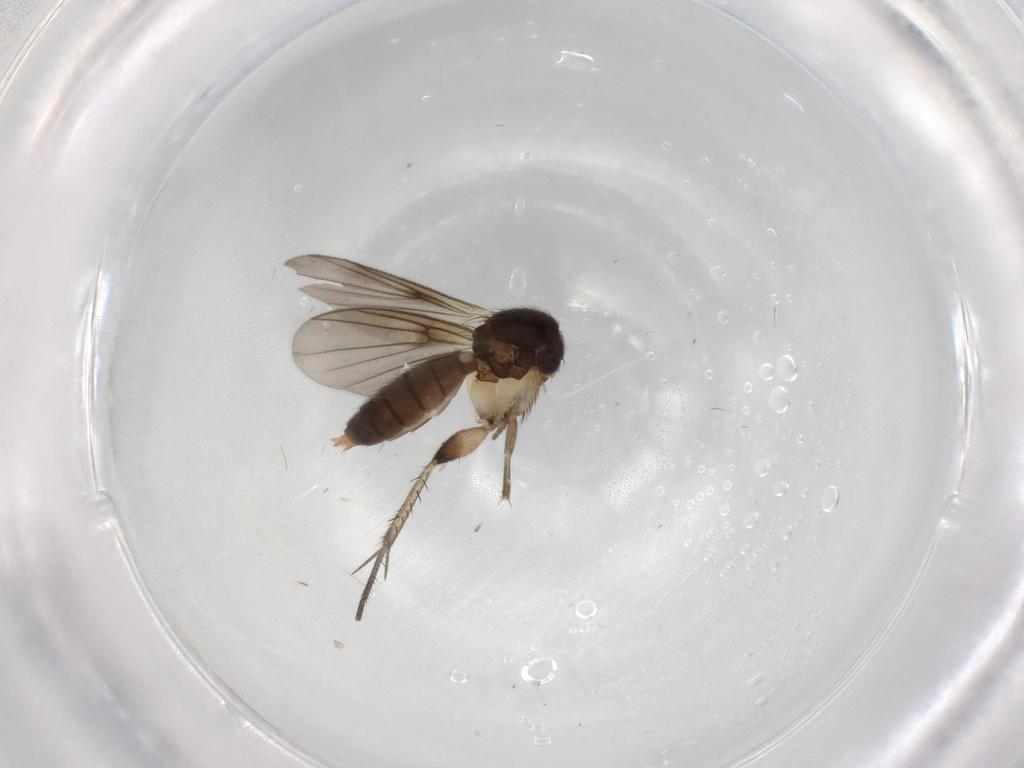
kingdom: Animalia
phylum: Arthropoda
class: Insecta
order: Diptera
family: Mycetophilidae
